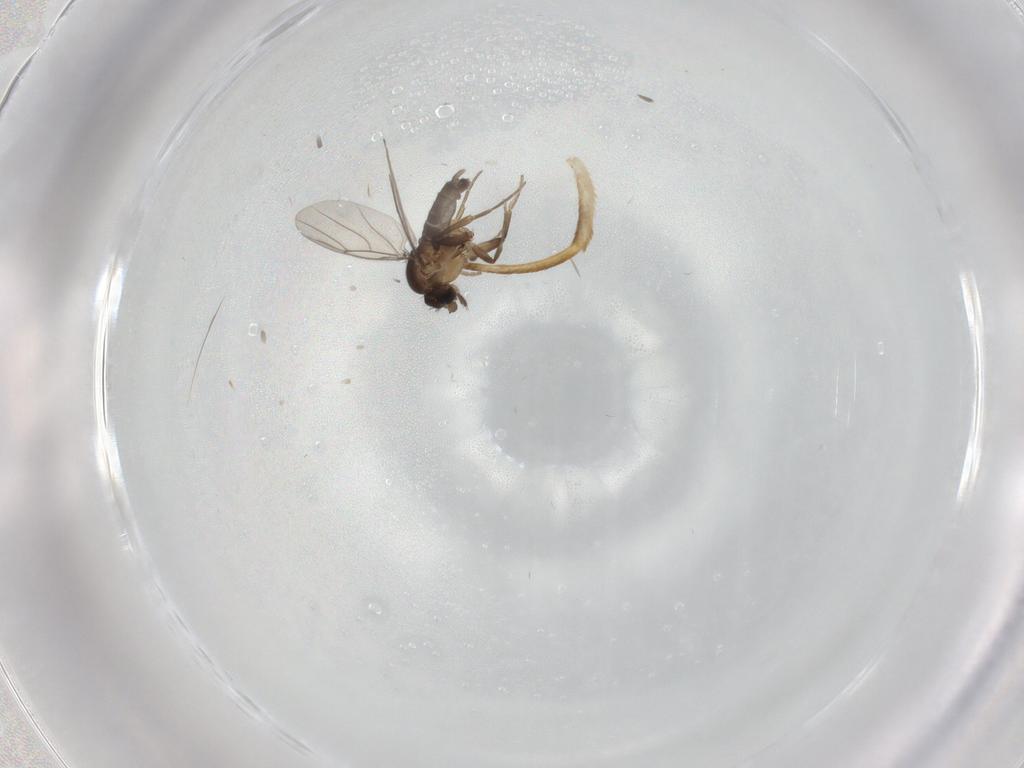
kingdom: Animalia
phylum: Arthropoda
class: Insecta
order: Diptera
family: Phoridae
